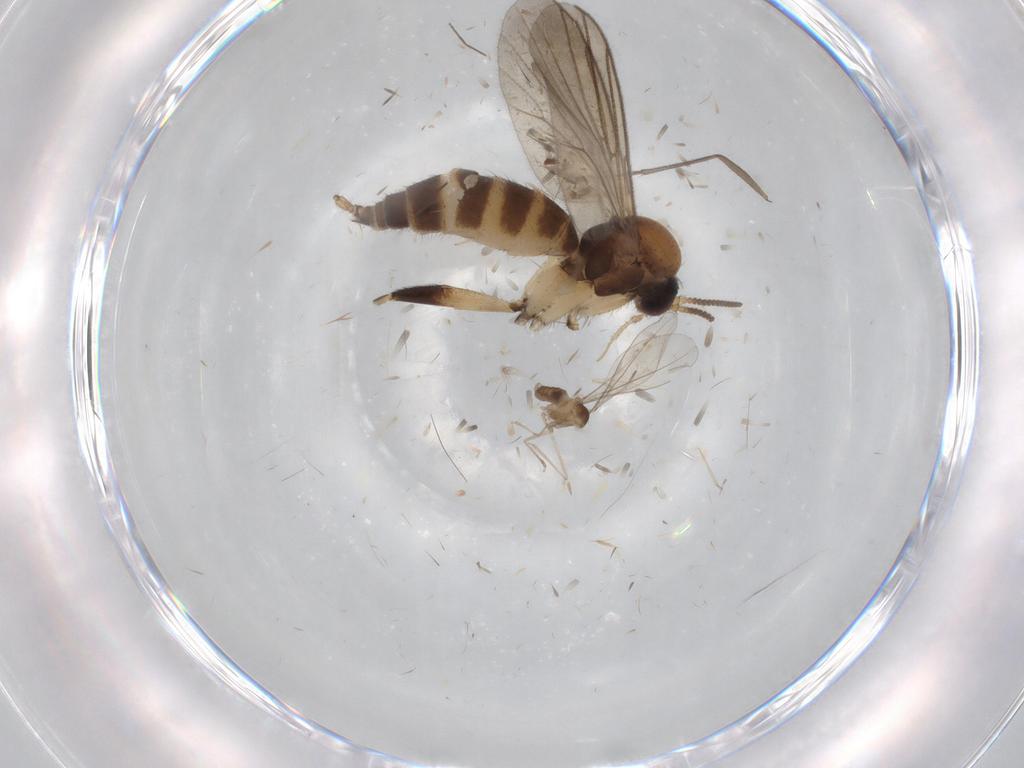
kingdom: Animalia
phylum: Arthropoda
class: Insecta
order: Diptera
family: Cecidomyiidae
